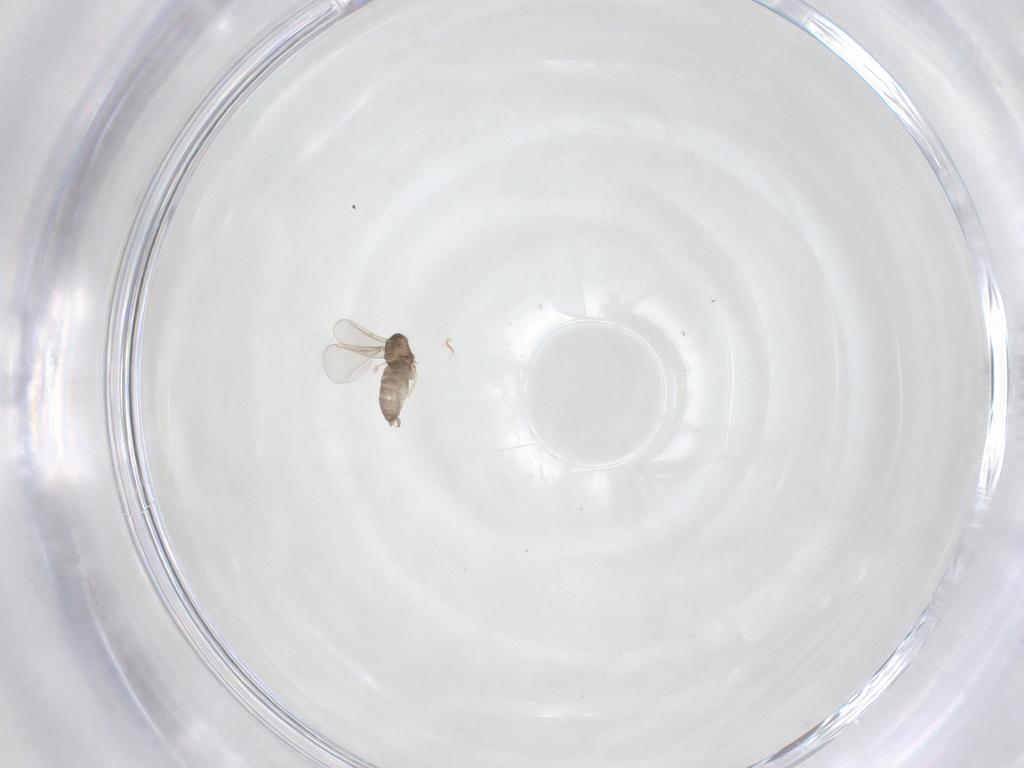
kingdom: Animalia
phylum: Arthropoda
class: Insecta
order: Diptera
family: Cecidomyiidae
